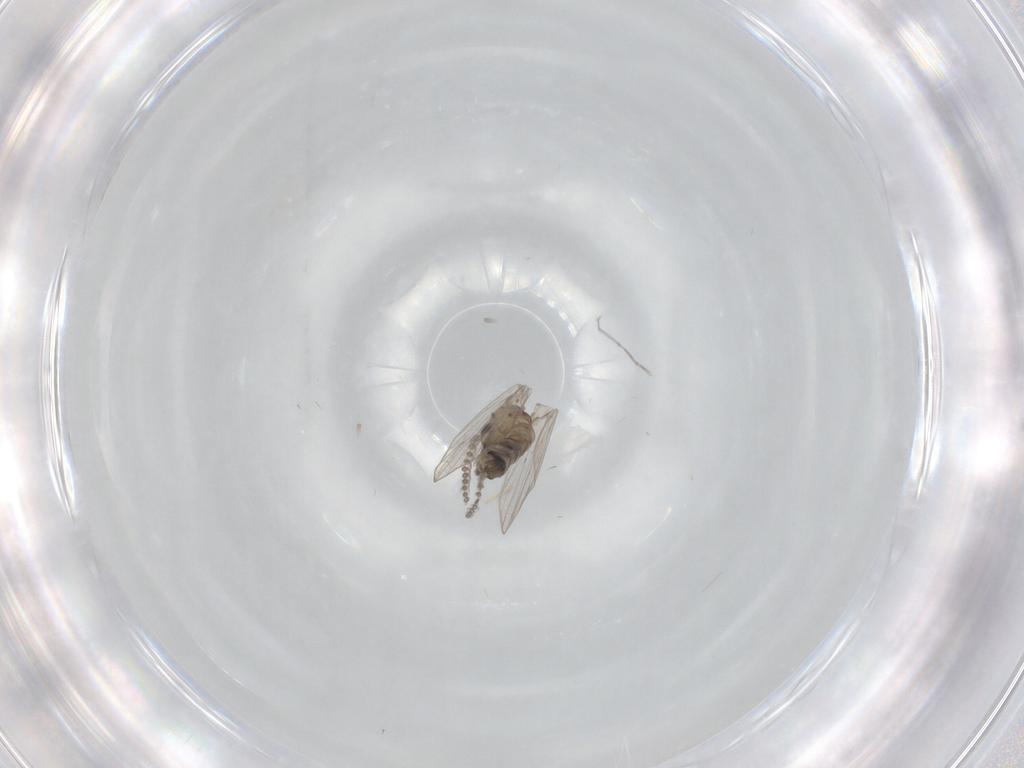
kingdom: Animalia
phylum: Arthropoda
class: Insecta
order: Diptera
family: Psychodidae
